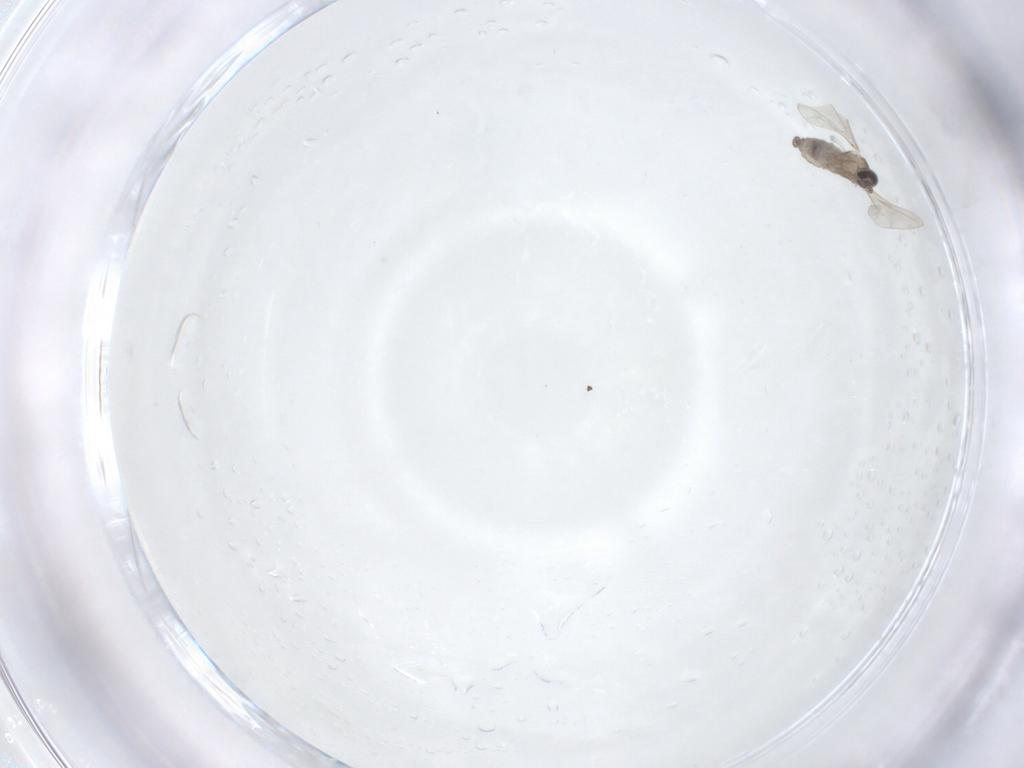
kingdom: Animalia
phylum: Arthropoda
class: Insecta
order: Diptera
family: Cecidomyiidae
